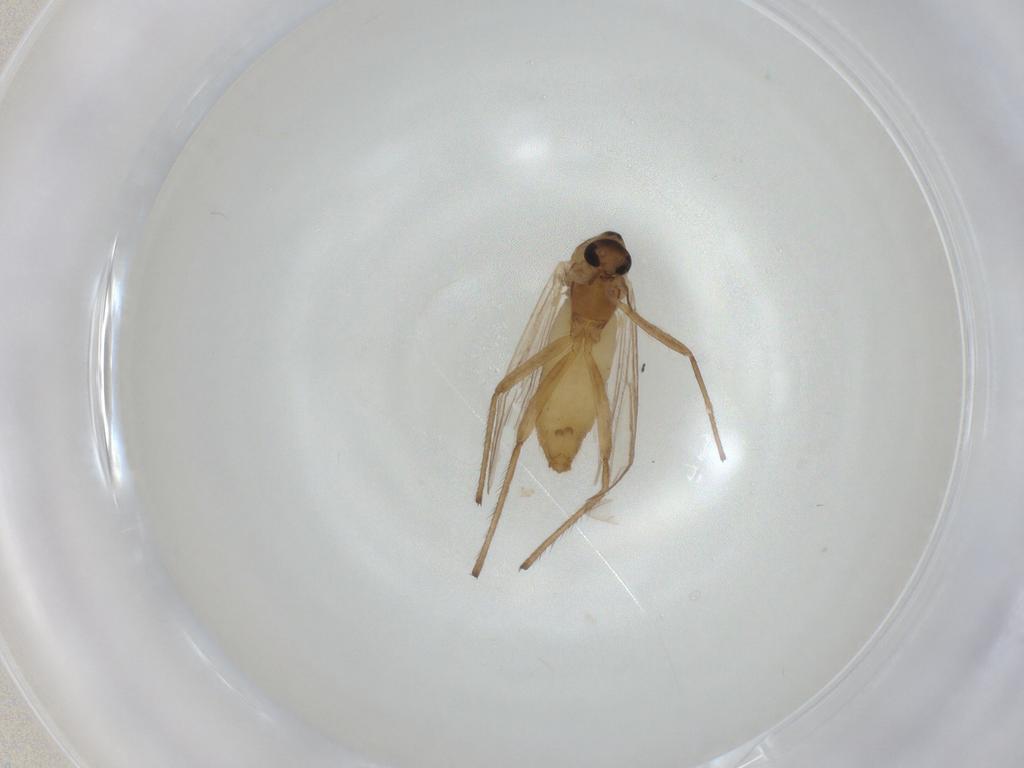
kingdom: Animalia
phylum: Arthropoda
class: Insecta
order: Diptera
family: Chironomidae
